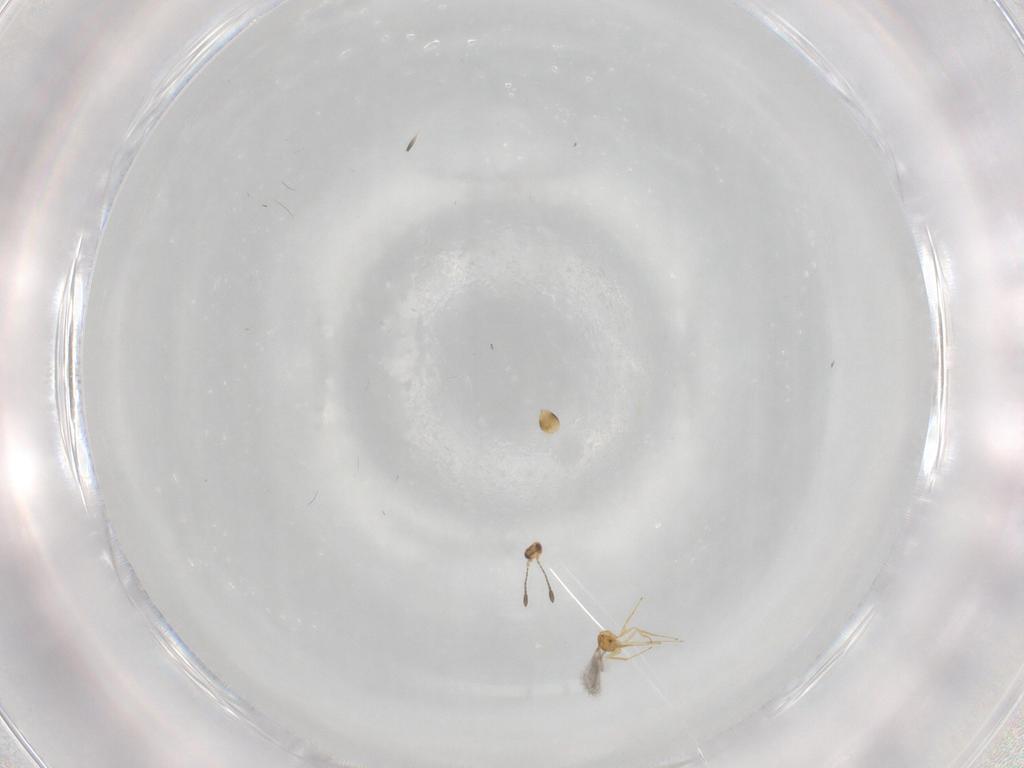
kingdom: Animalia
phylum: Arthropoda
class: Insecta
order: Hymenoptera
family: Mymaridae
